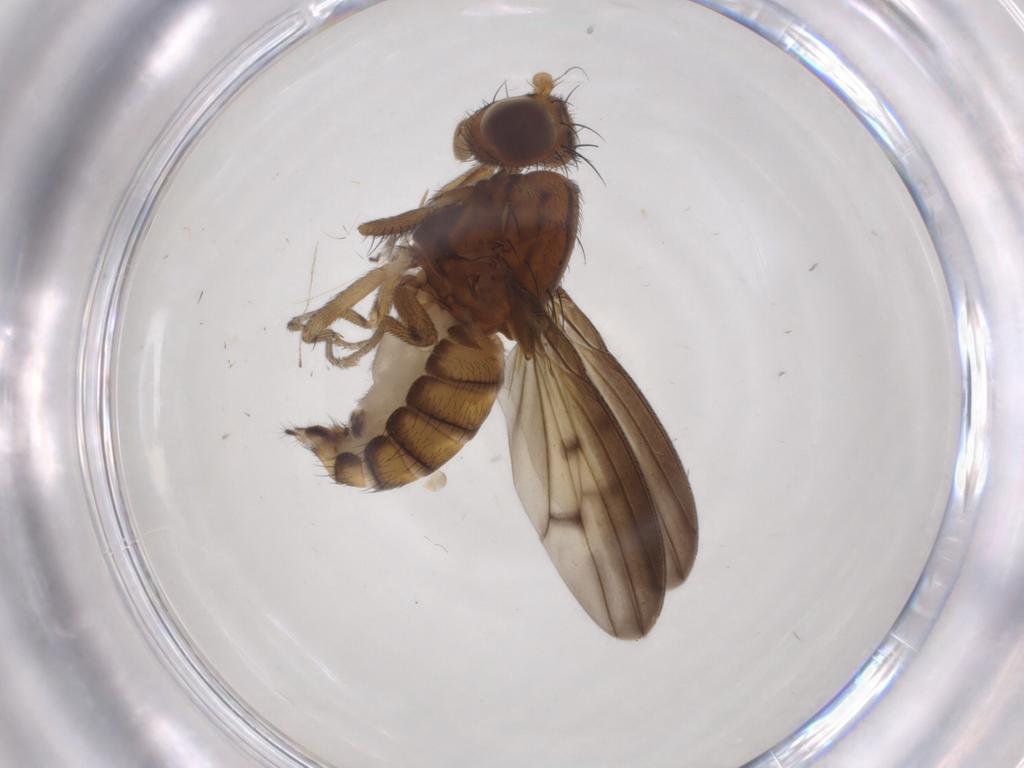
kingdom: Animalia
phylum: Arthropoda
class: Insecta
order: Diptera
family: Lauxaniidae
